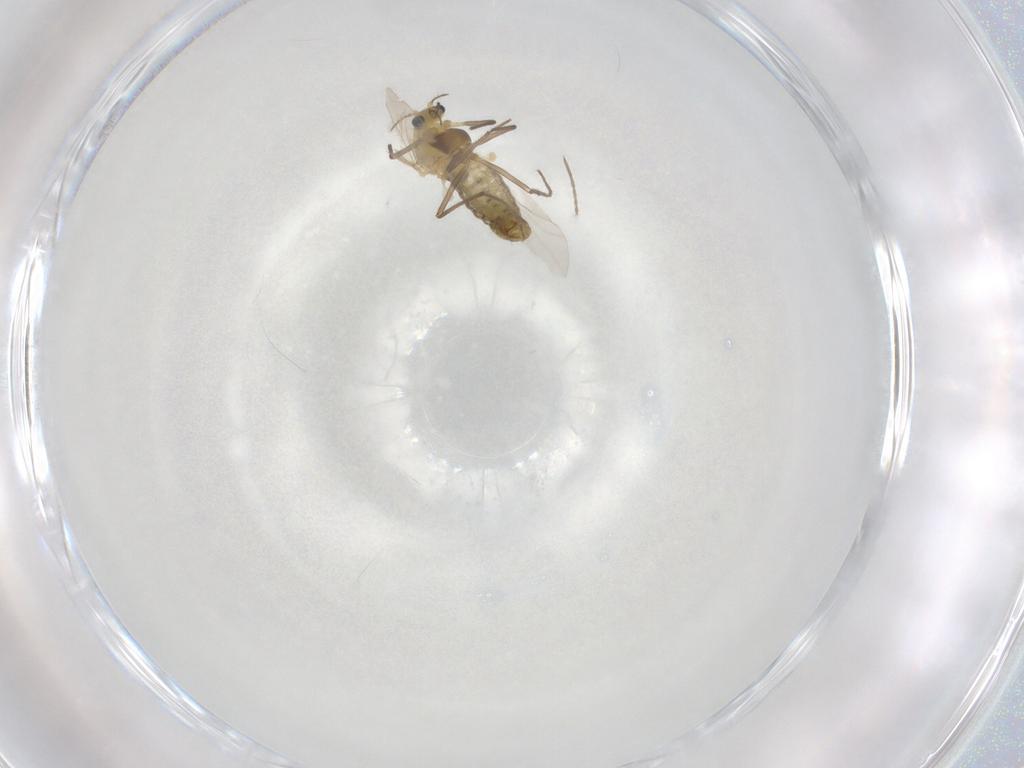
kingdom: Animalia
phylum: Arthropoda
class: Insecta
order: Diptera
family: Chironomidae
